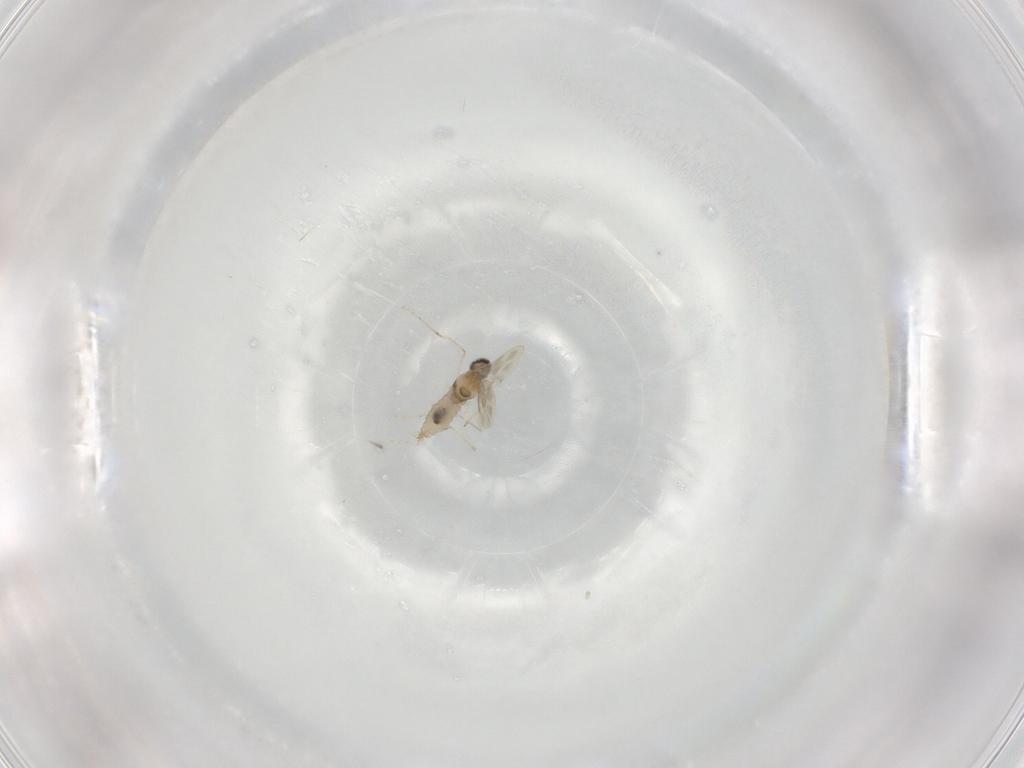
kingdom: Animalia
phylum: Arthropoda
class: Insecta
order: Diptera
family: Cecidomyiidae
